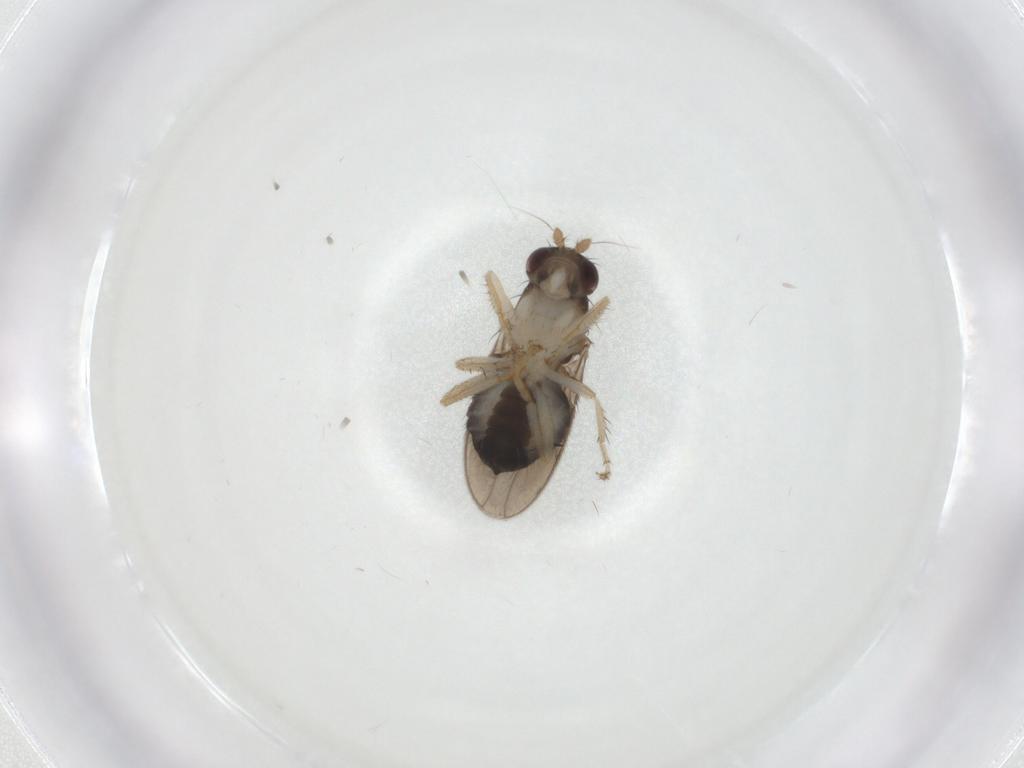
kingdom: Animalia
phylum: Arthropoda
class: Insecta
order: Diptera
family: Sphaeroceridae
